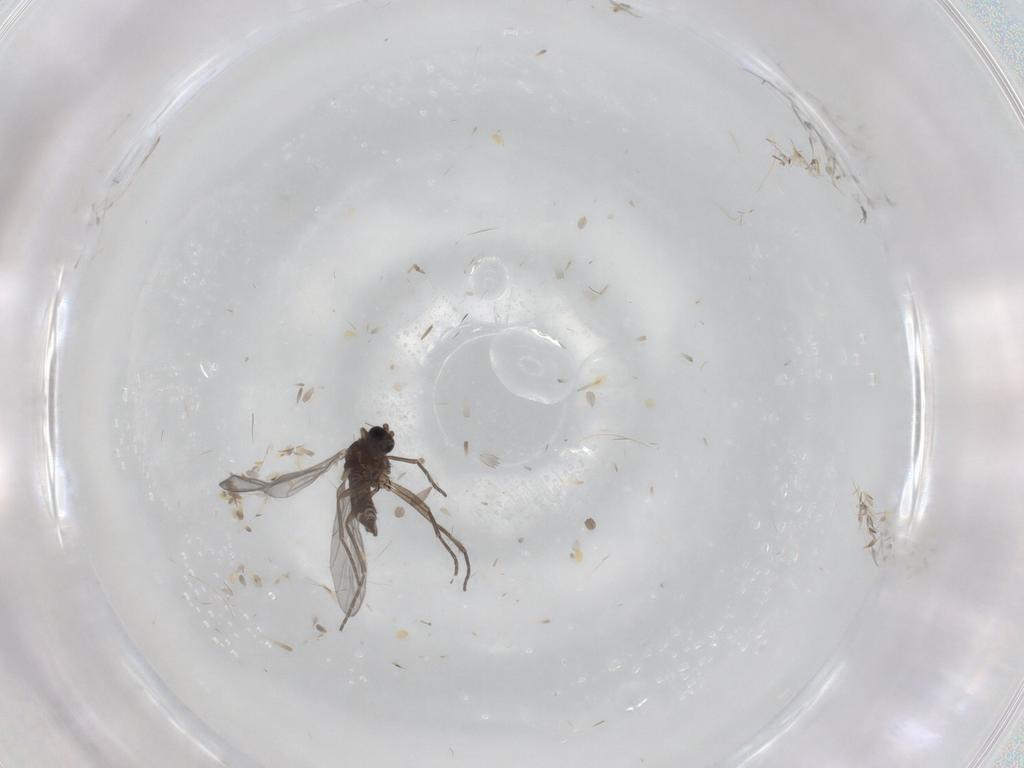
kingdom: Animalia
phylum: Arthropoda
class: Insecta
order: Diptera
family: Sciaridae
